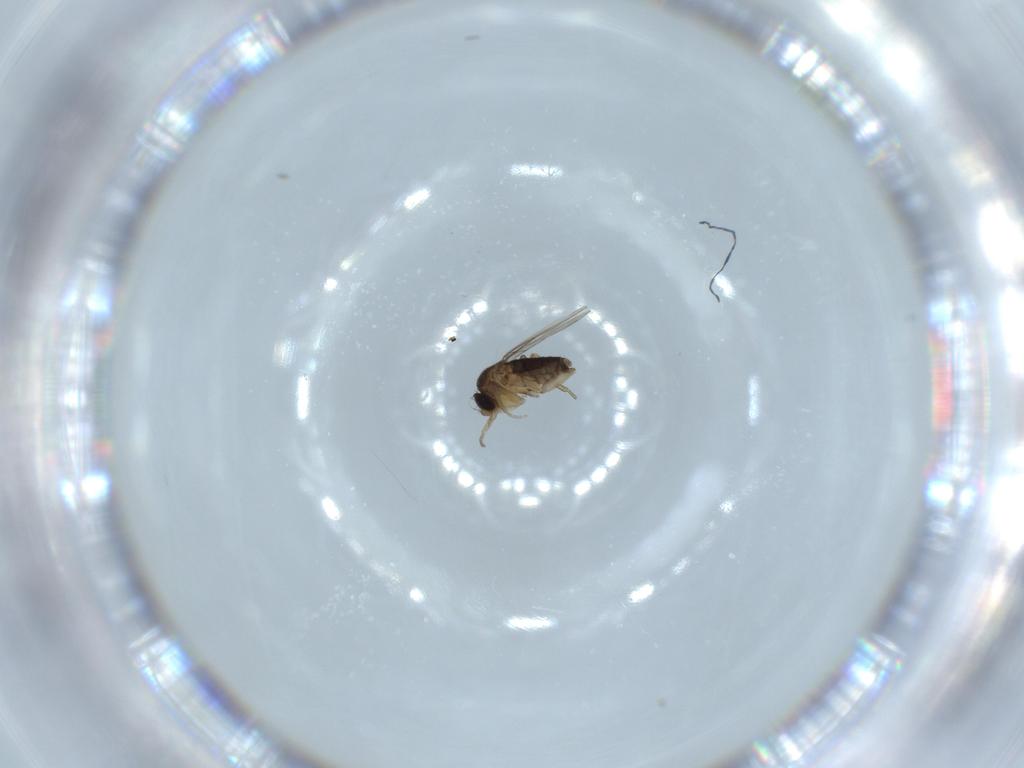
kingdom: Animalia
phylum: Arthropoda
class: Insecta
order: Diptera
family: Phoridae
